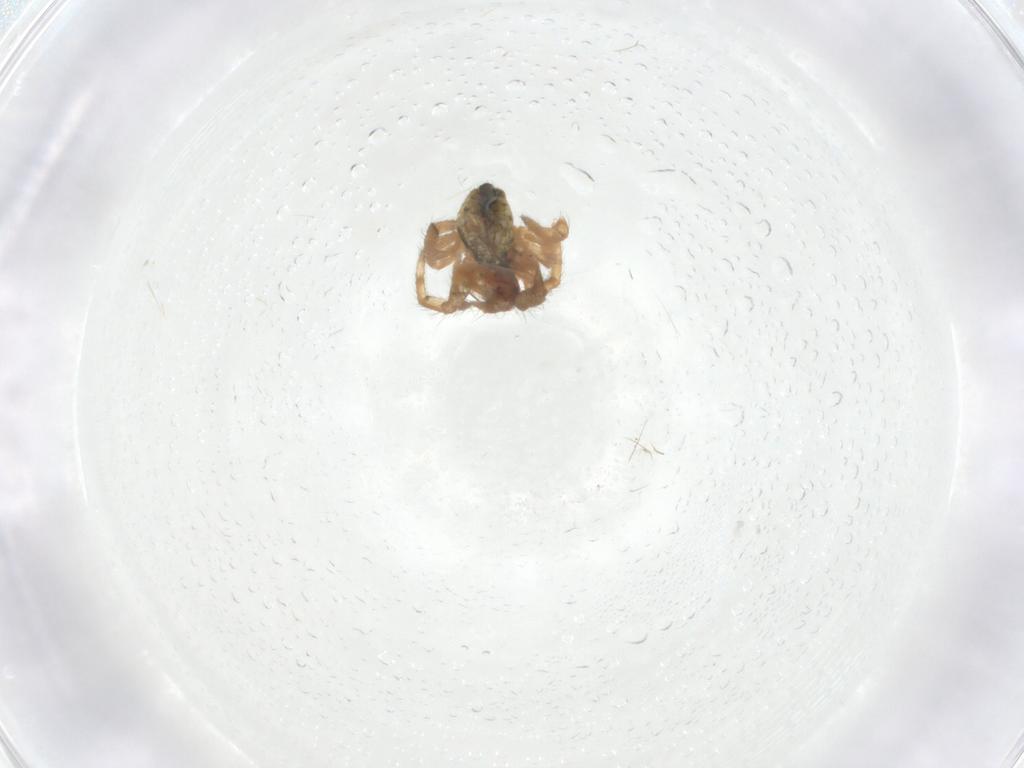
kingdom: Animalia
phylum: Arthropoda
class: Arachnida
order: Araneae
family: Araneidae
